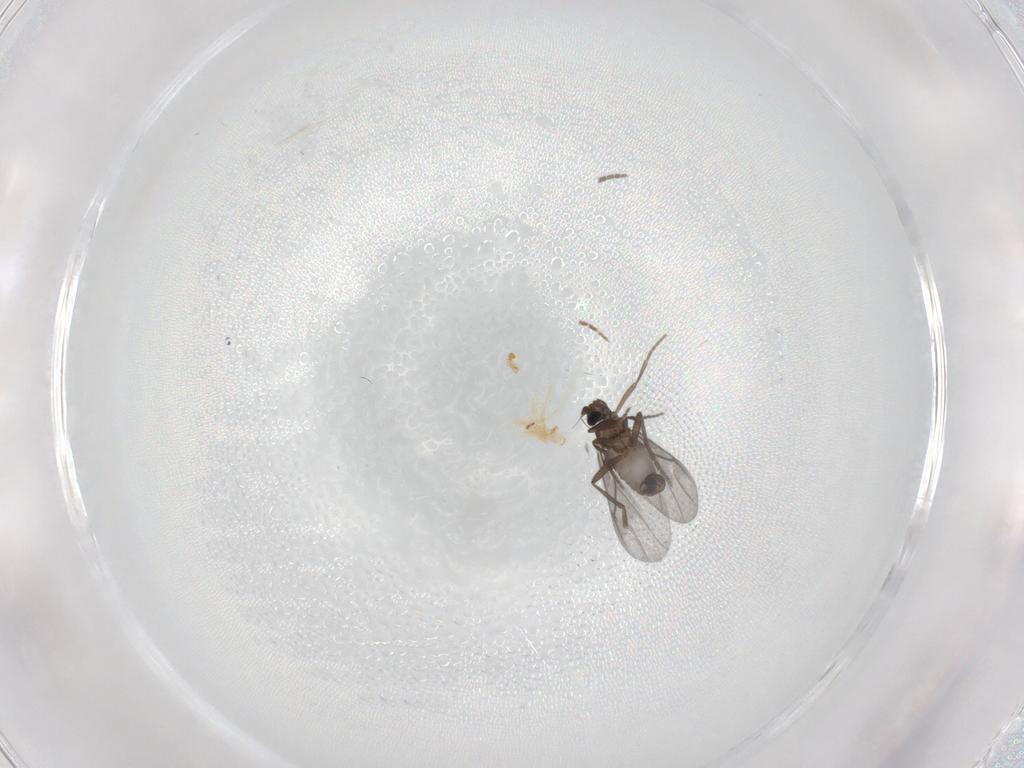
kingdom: Animalia
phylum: Arthropoda
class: Insecta
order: Diptera
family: Phoridae
